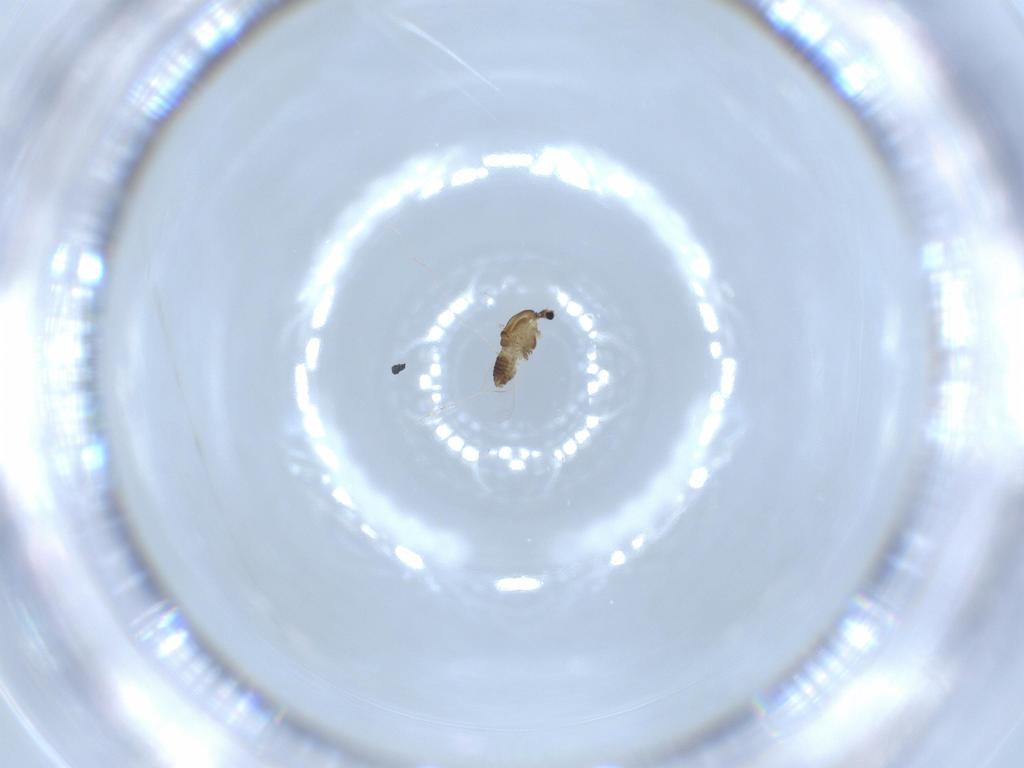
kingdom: Animalia
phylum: Arthropoda
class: Insecta
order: Diptera
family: Chironomidae
